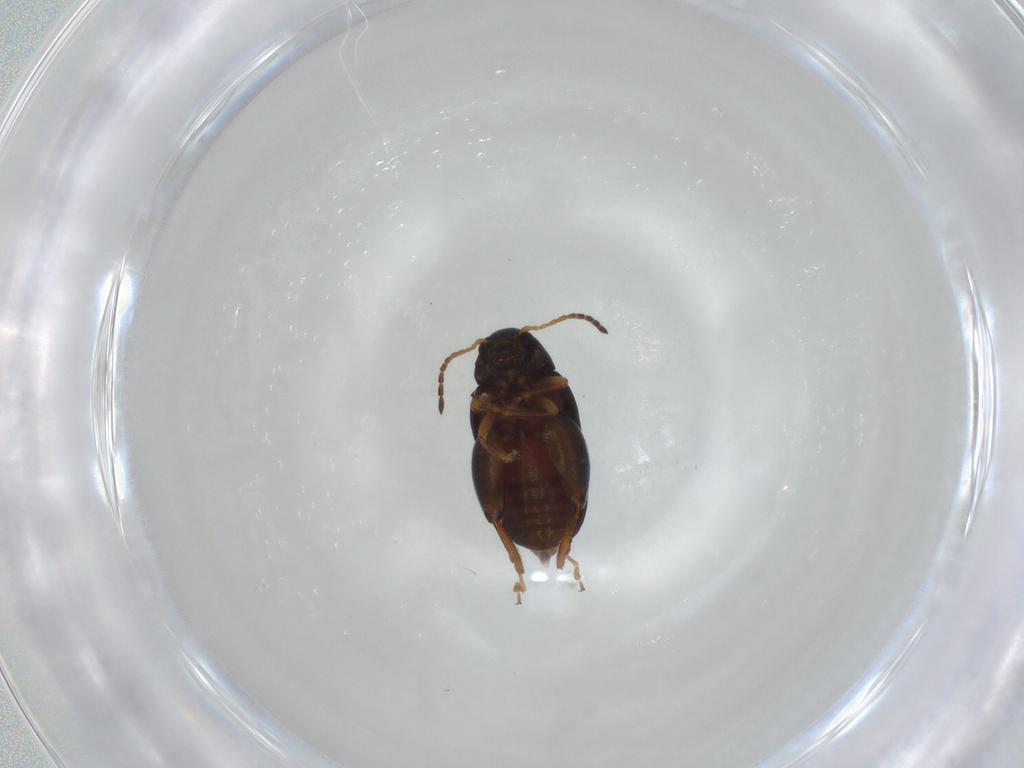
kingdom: Animalia
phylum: Arthropoda
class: Insecta
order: Coleoptera
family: Chrysomelidae
